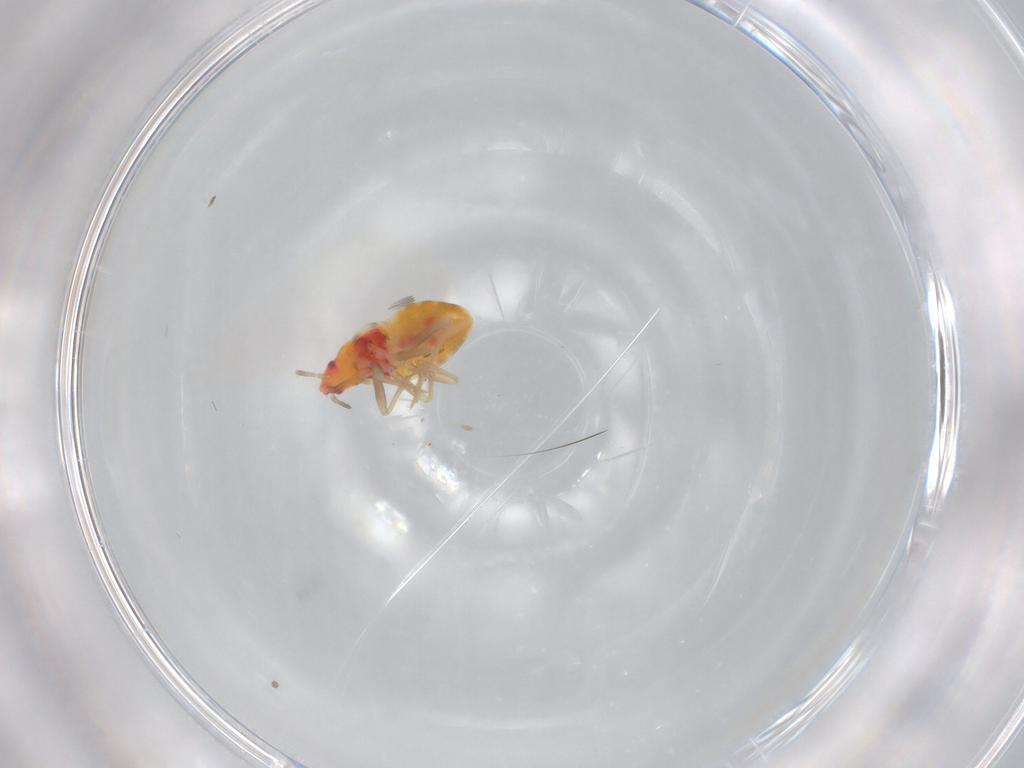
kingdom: Animalia
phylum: Arthropoda
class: Insecta
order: Hemiptera
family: Aleyrodidae
